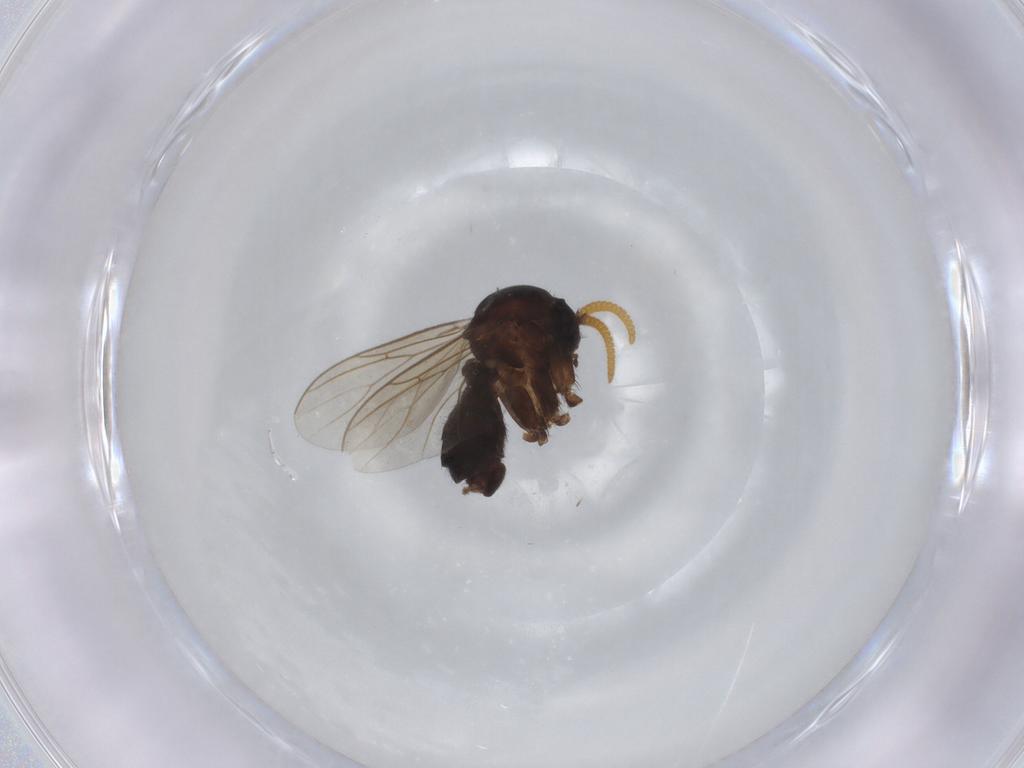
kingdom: Animalia
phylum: Arthropoda
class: Insecta
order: Diptera
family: Mycetophilidae
